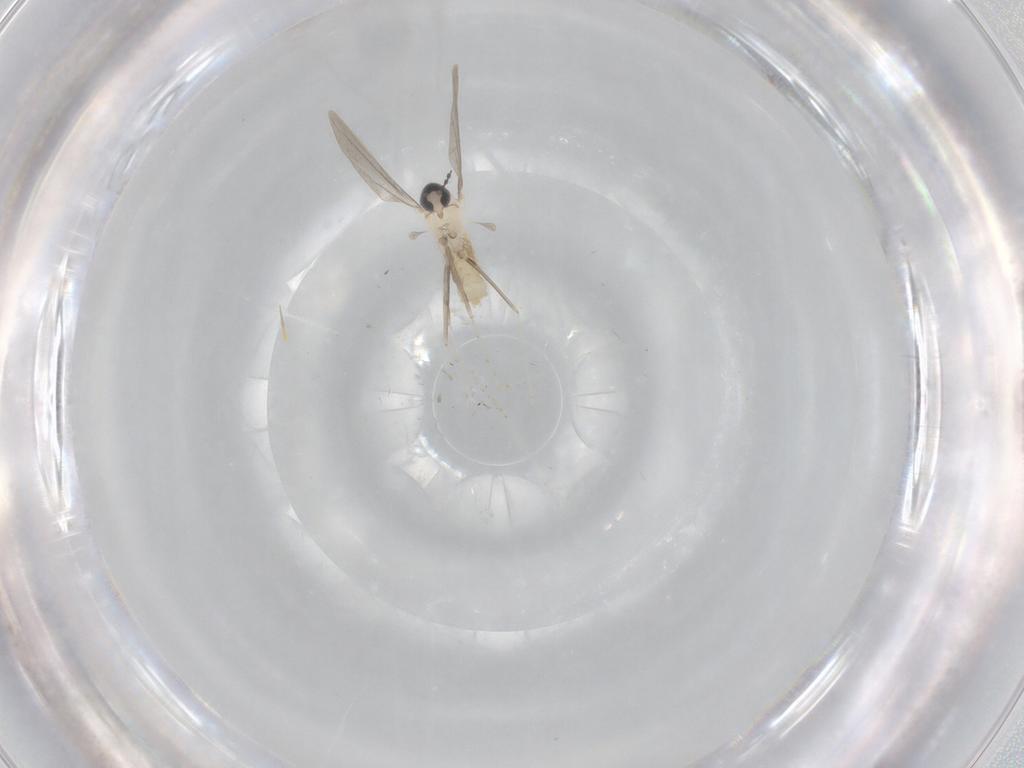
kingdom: Animalia
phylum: Arthropoda
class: Insecta
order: Diptera
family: Cecidomyiidae
